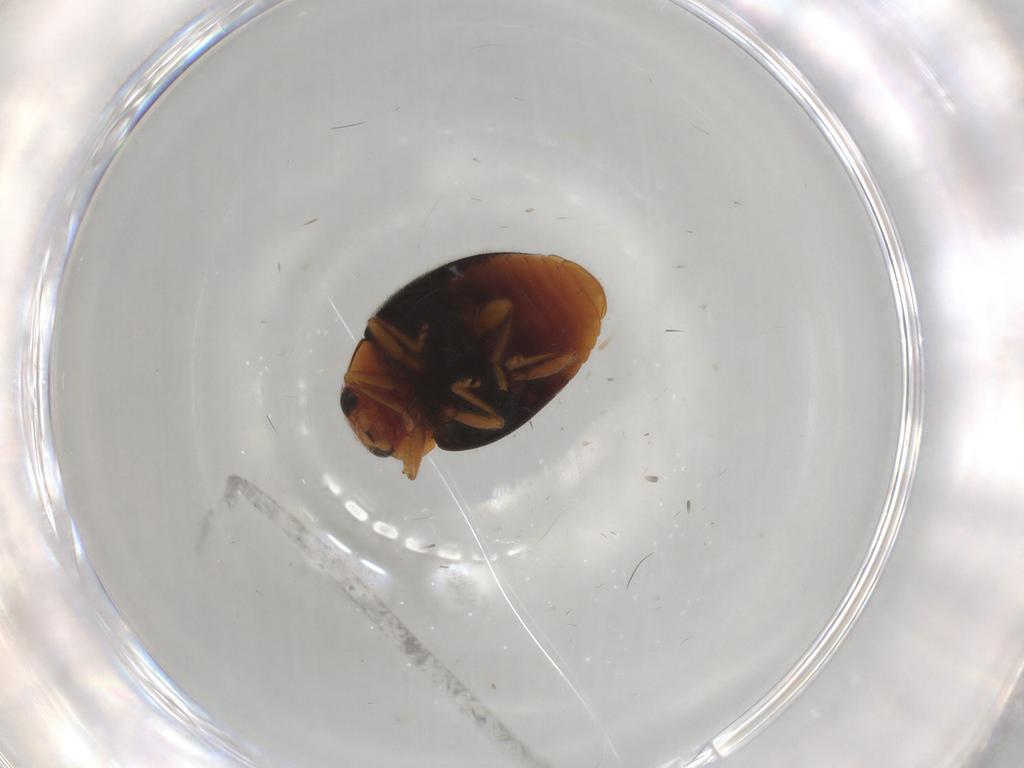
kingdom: Animalia
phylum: Arthropoda
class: Insecta
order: Coleoptera
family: Coccinellidae
